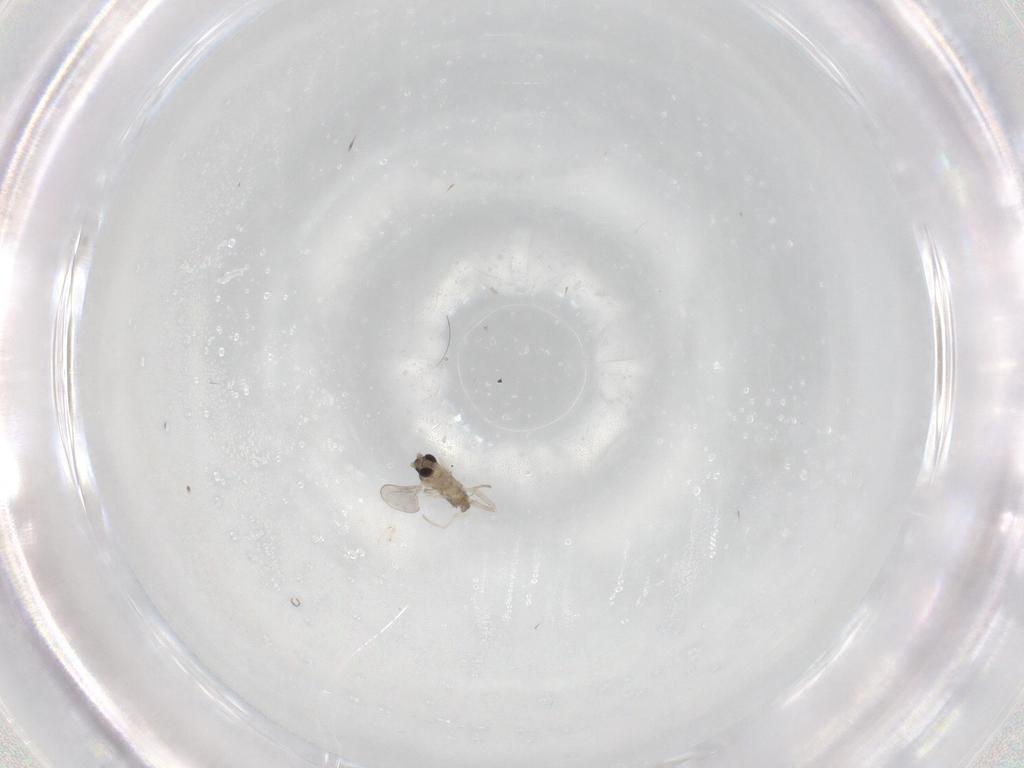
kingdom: Animalia
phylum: Arthropoda
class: Insecta
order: Diptera
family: Cecidomyiidae
